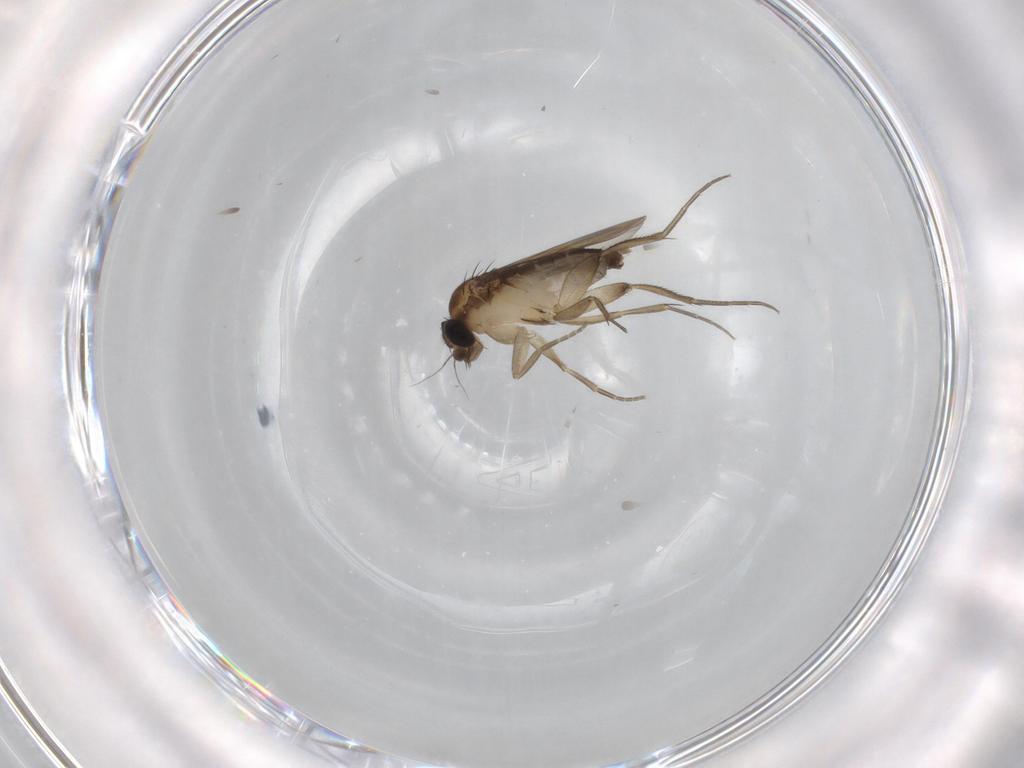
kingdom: Animalia
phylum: Arthropoda
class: Insecta
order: Diptera
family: Phoridae
